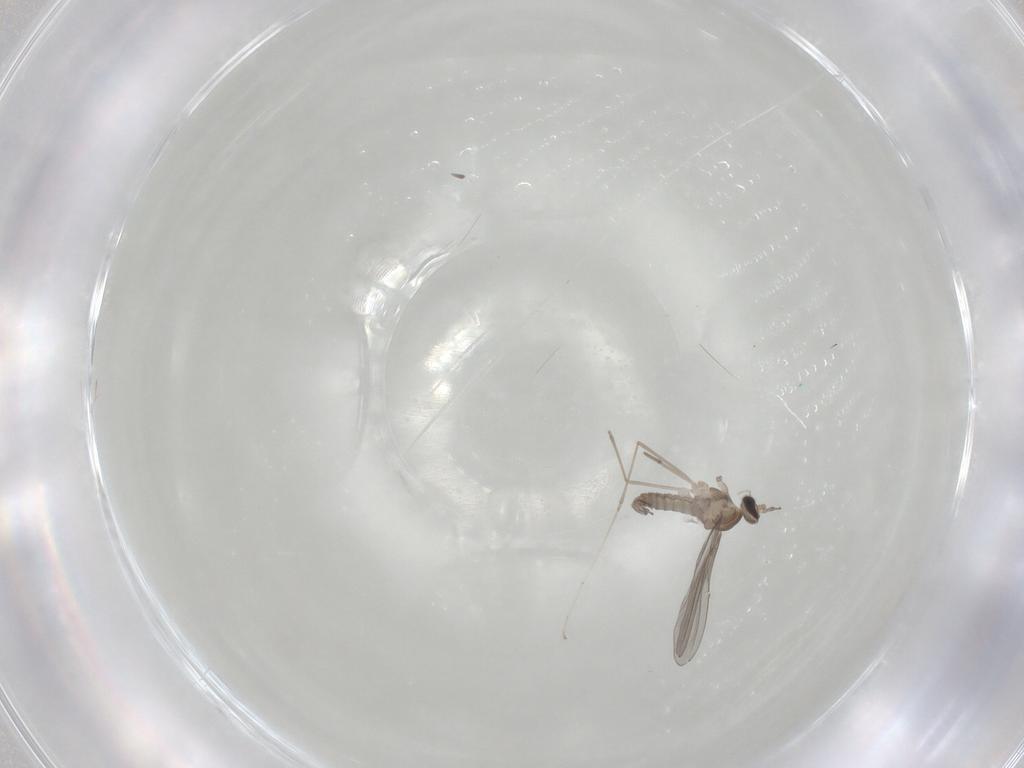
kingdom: Animalia
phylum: Arthropoda
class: Insecta
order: Diptera
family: Cecidomyiidae
